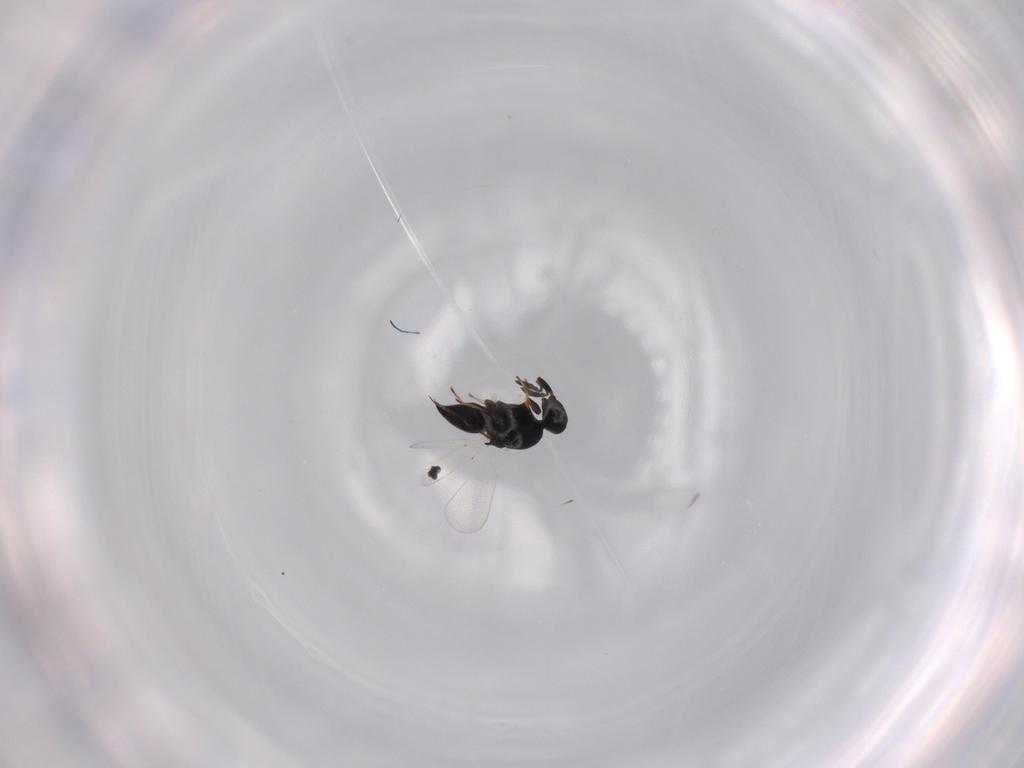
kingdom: Animalia
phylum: Arthropoda
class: Insecta
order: Hymenoptera
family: Platygastridae
